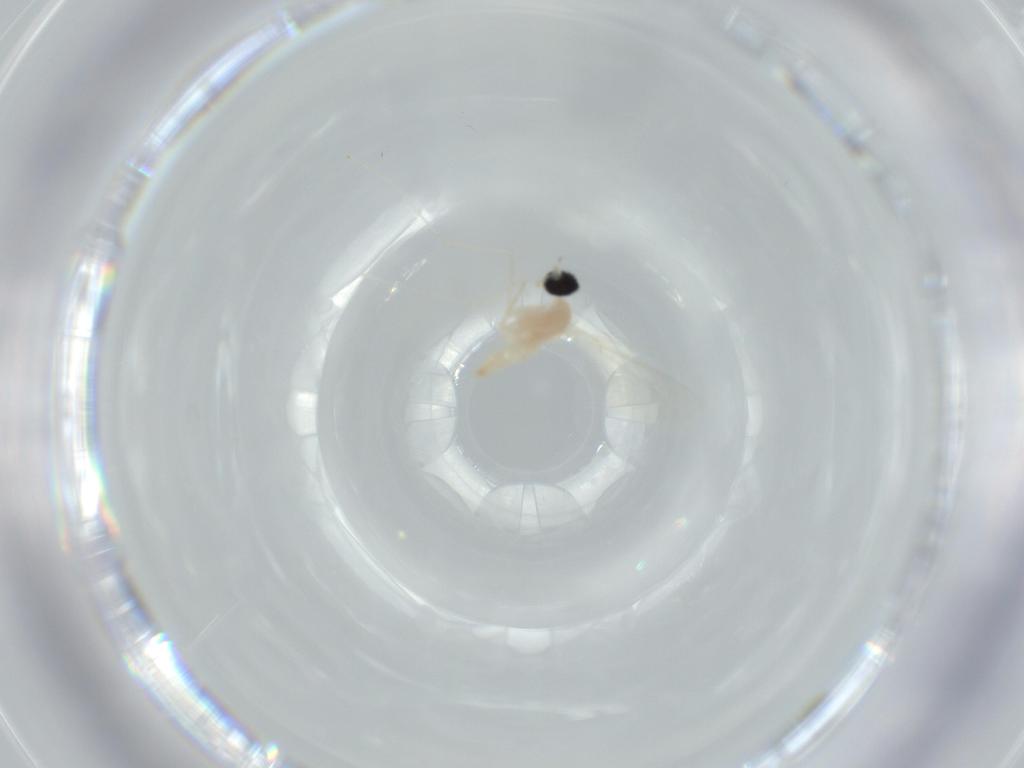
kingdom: Animalia
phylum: Arthropoda
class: Insecta
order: Diptera
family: Cecidomyiidae
